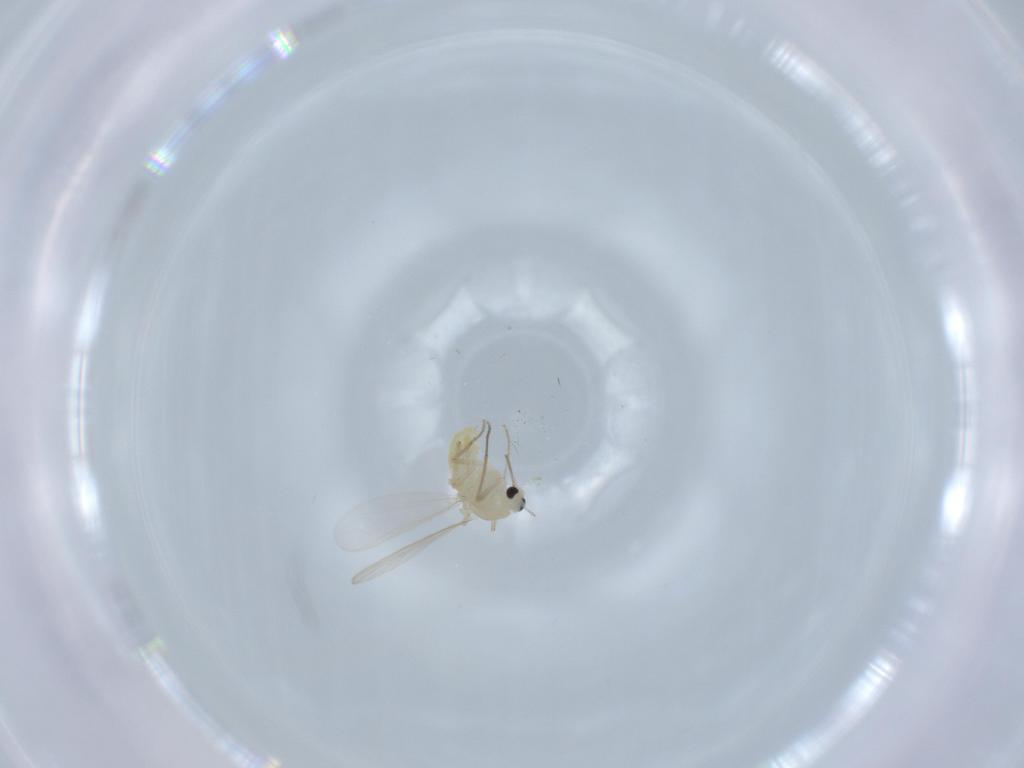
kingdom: Animalia
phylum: Arthropoda
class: Insecta
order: Diptera
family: Chironomidae
